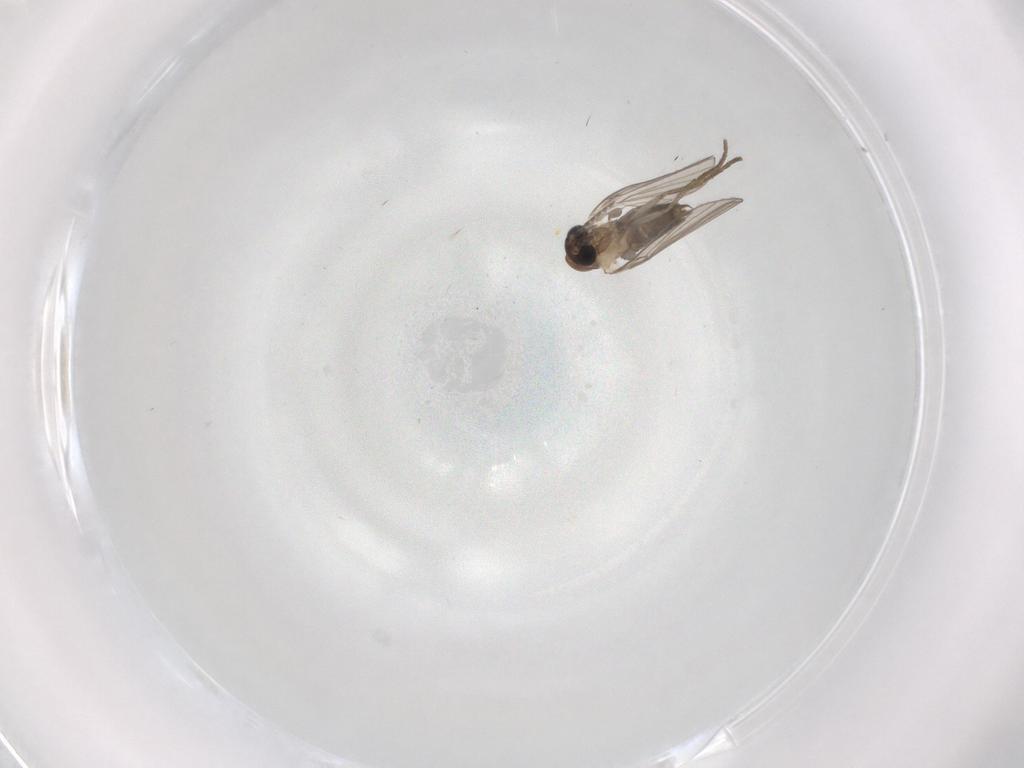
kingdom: Animalia
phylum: Arthropoda
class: Insecta
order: Diptera
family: Psychodidae
